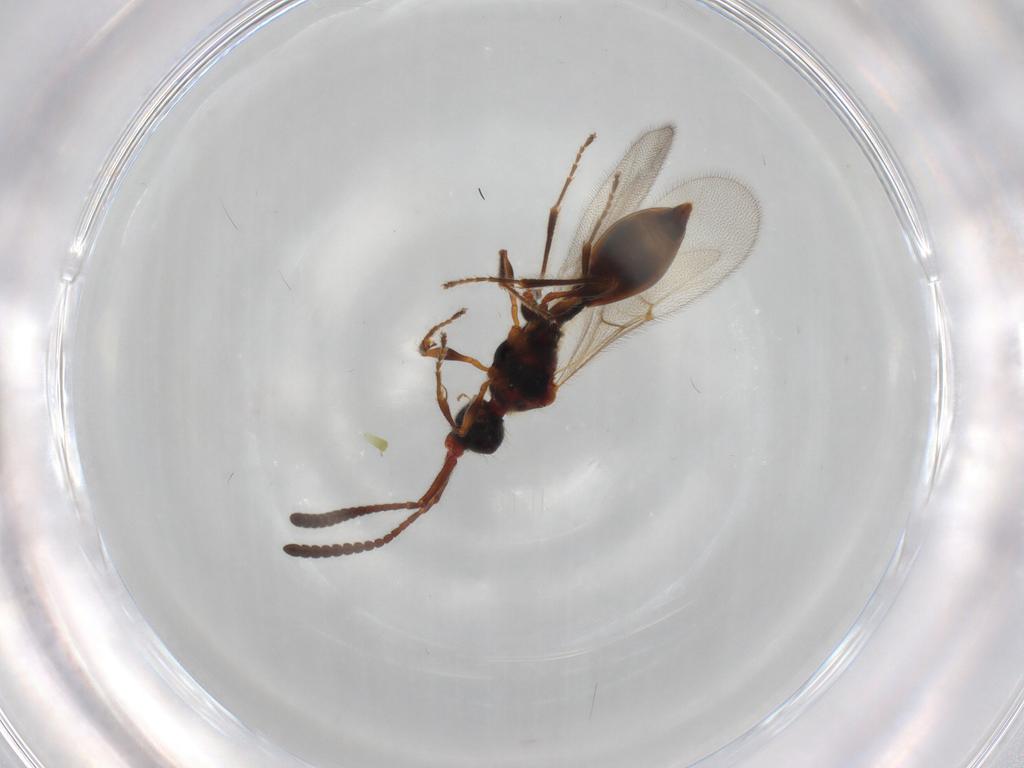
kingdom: Animalia
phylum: Arthropoda
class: Insecta
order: Hymenoptera
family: Diapriidae
